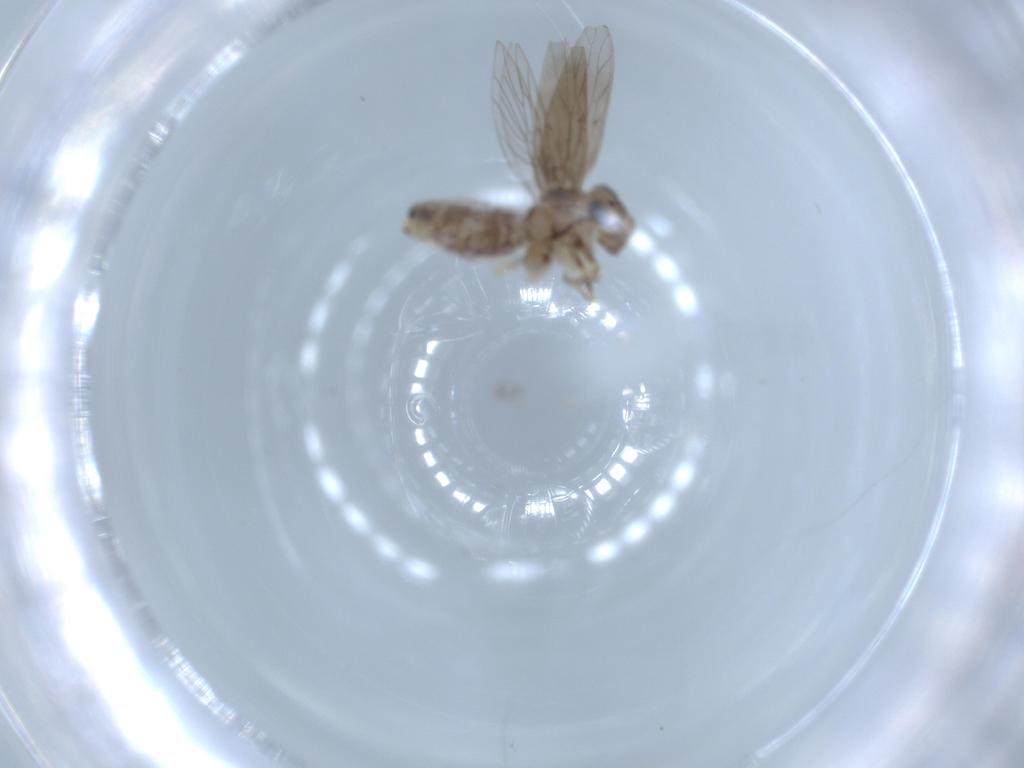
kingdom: Animalia
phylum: Arthropoda
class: Insecta
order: Psocodea
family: Lepidopsocidae
